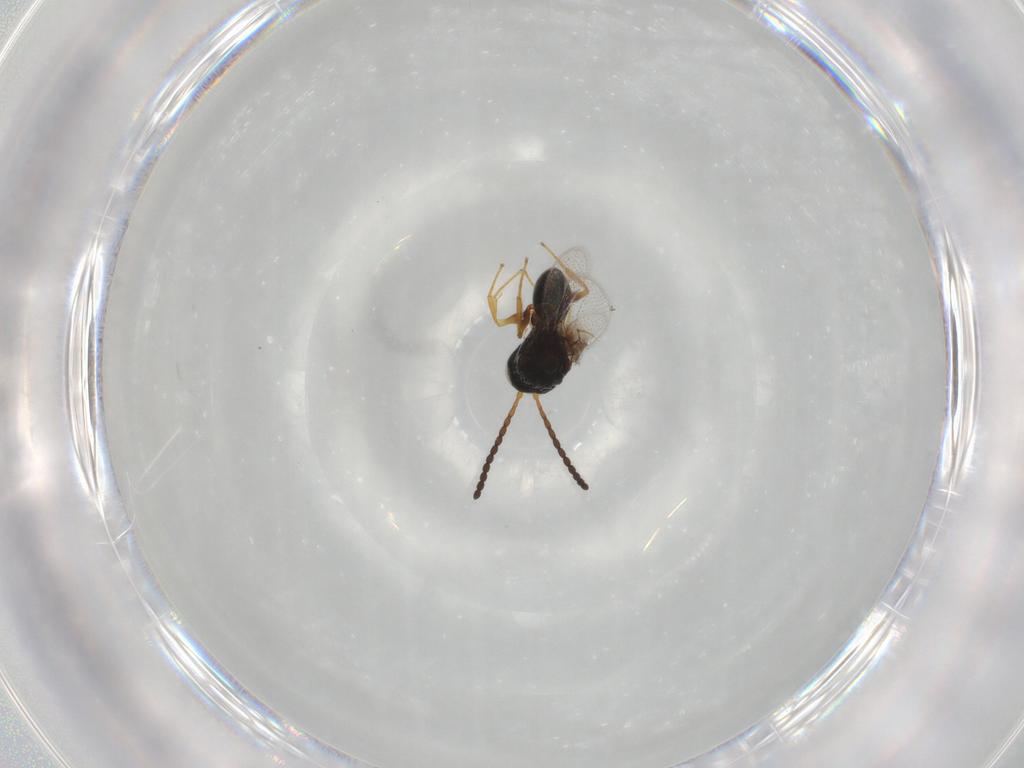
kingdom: Animalia
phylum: Arthropoda
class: Insecta
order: Hymenoptera
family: Figitidae
